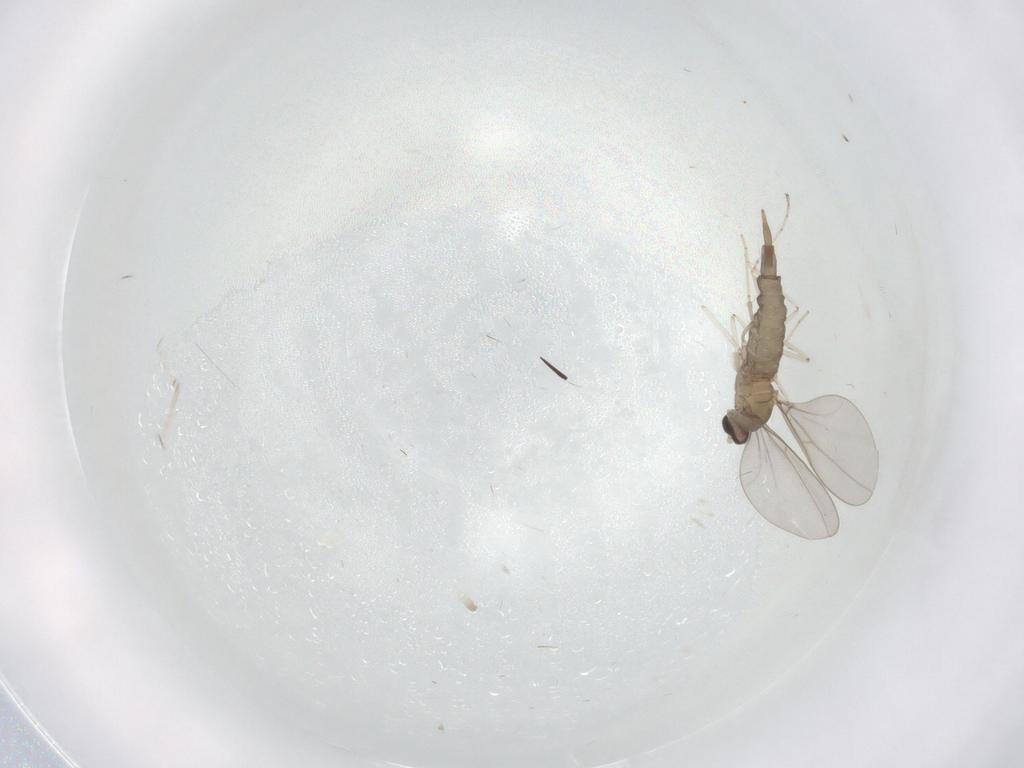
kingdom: Animalia
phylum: Arthropoda
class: Insecta
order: Diptera
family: Cecidomyiidae
